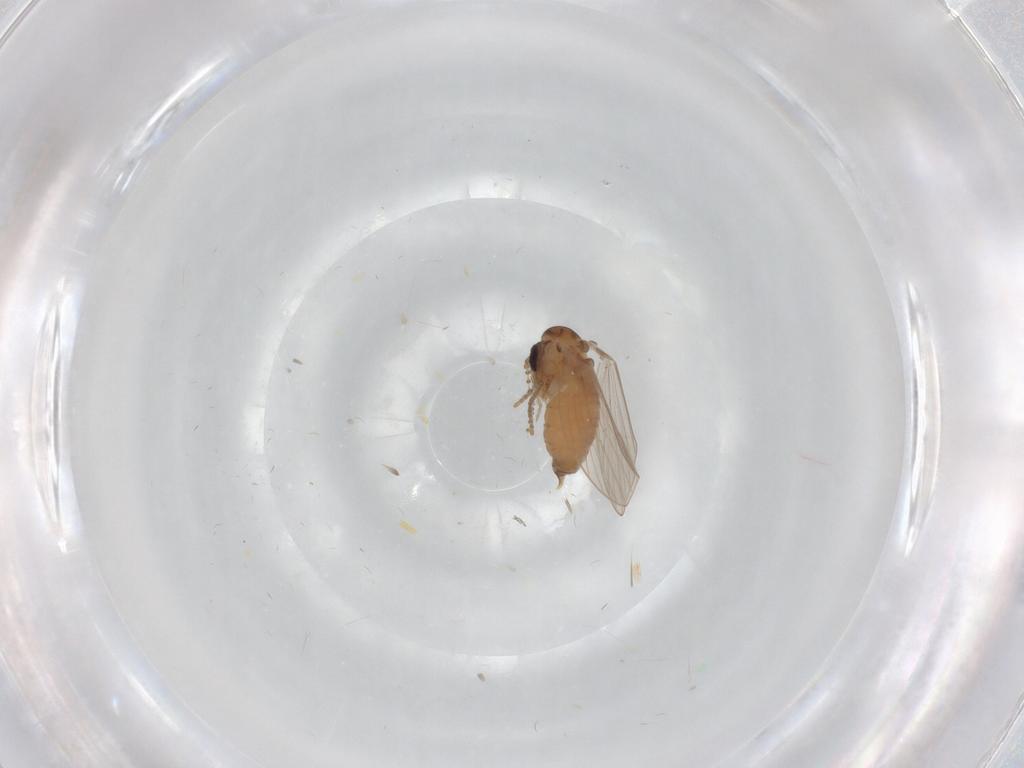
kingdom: Animalia
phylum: Arthropoda
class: Insecta
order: Diptera
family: Psychodidae
